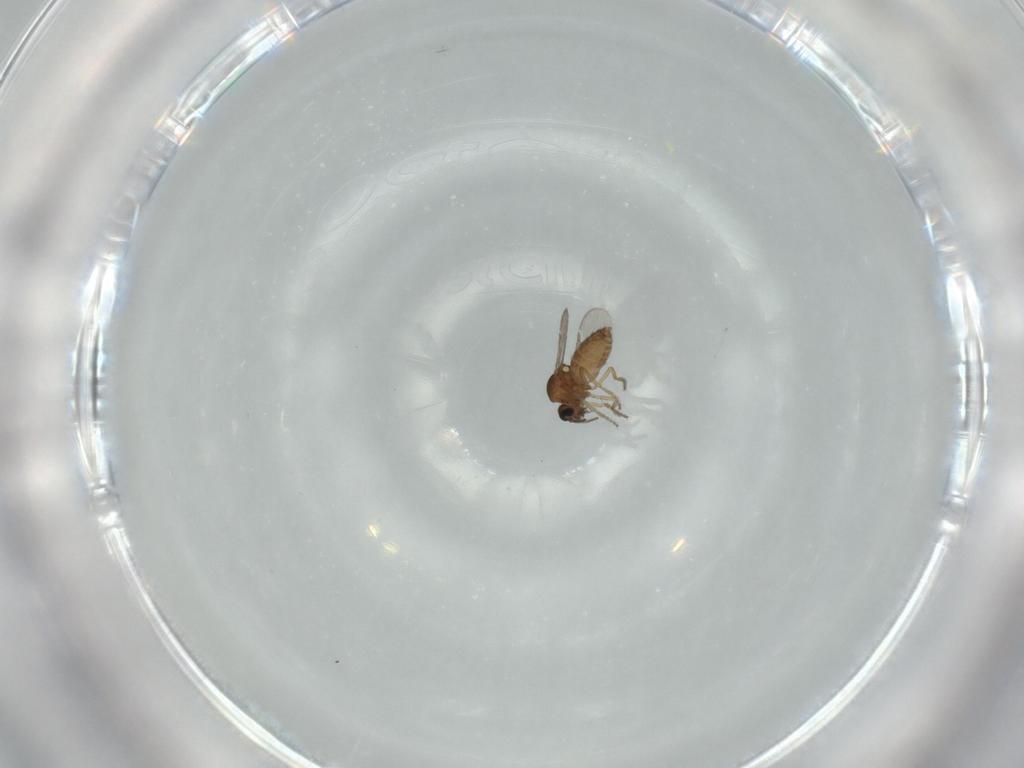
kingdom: Animalia
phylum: Arthropoda
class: Insecta
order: Diptera
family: Ceratopogonidae
